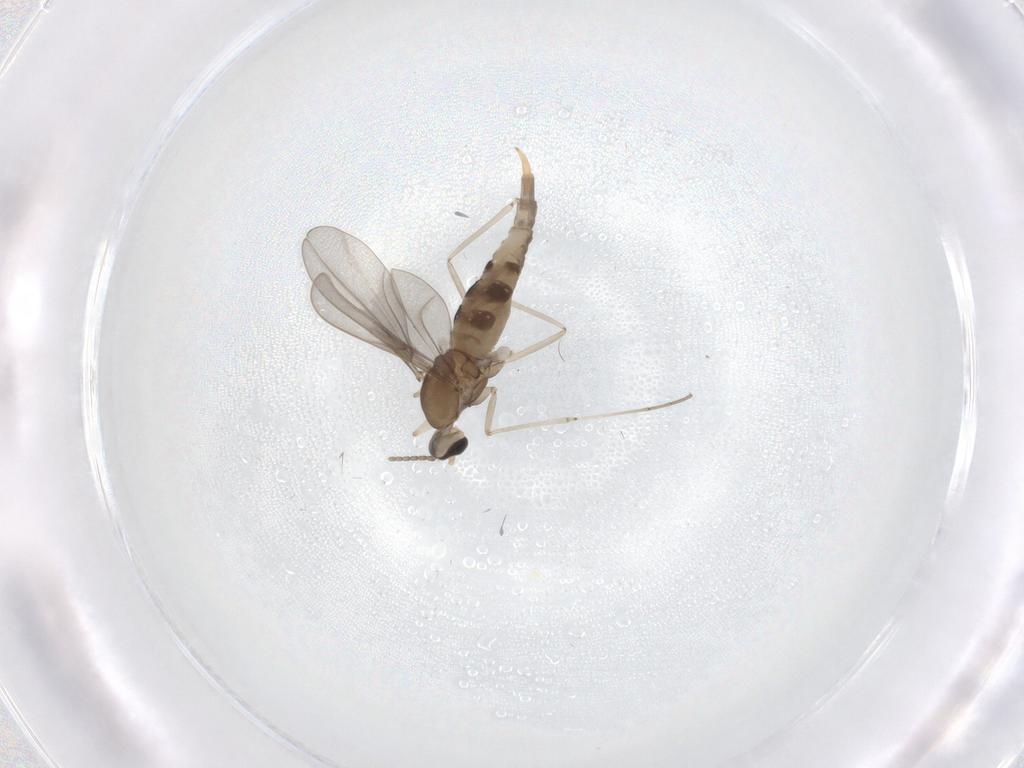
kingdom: Animalia
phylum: Arthropoda
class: Insecta
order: Diptera
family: Cecidomyiidae
